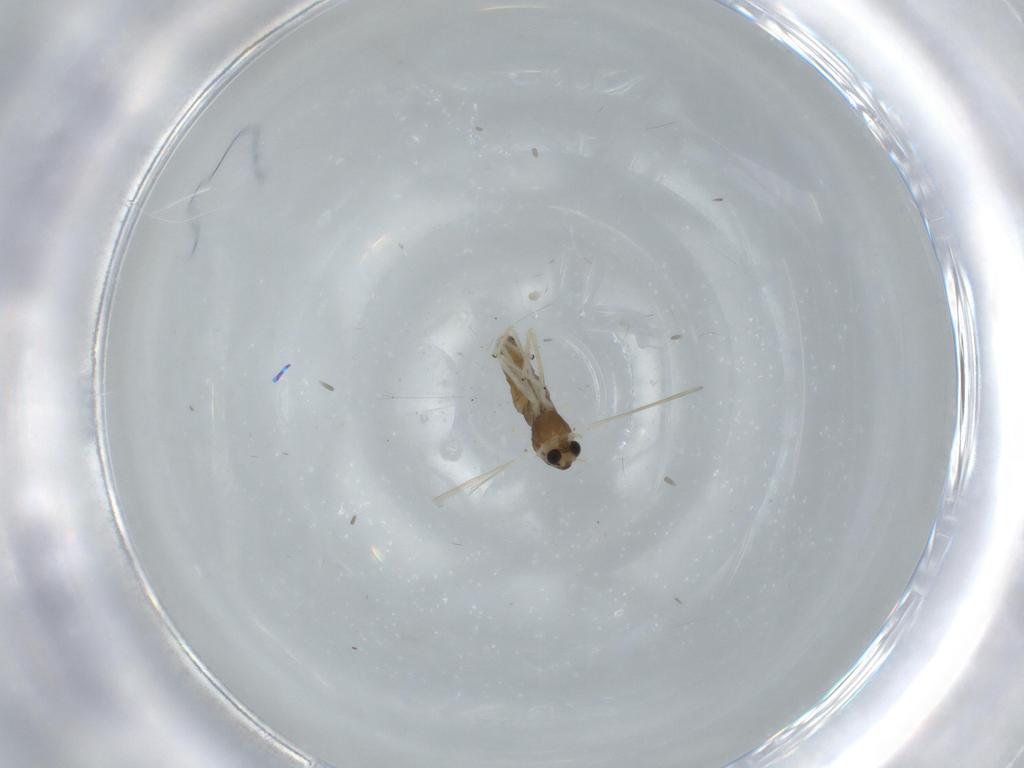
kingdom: Animalia
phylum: Arthropoda
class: Insecta
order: Diptera
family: Chironomidae
